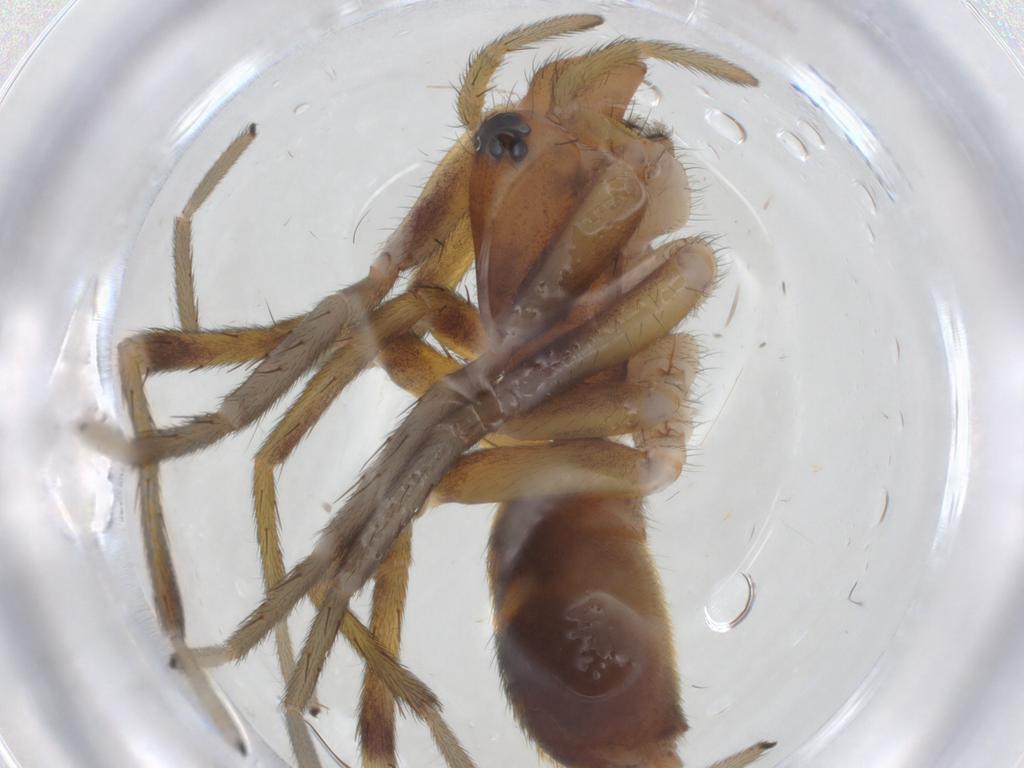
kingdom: Animalia
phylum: Arthropoda
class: Arachnida
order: Araneae
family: Corinnidae
